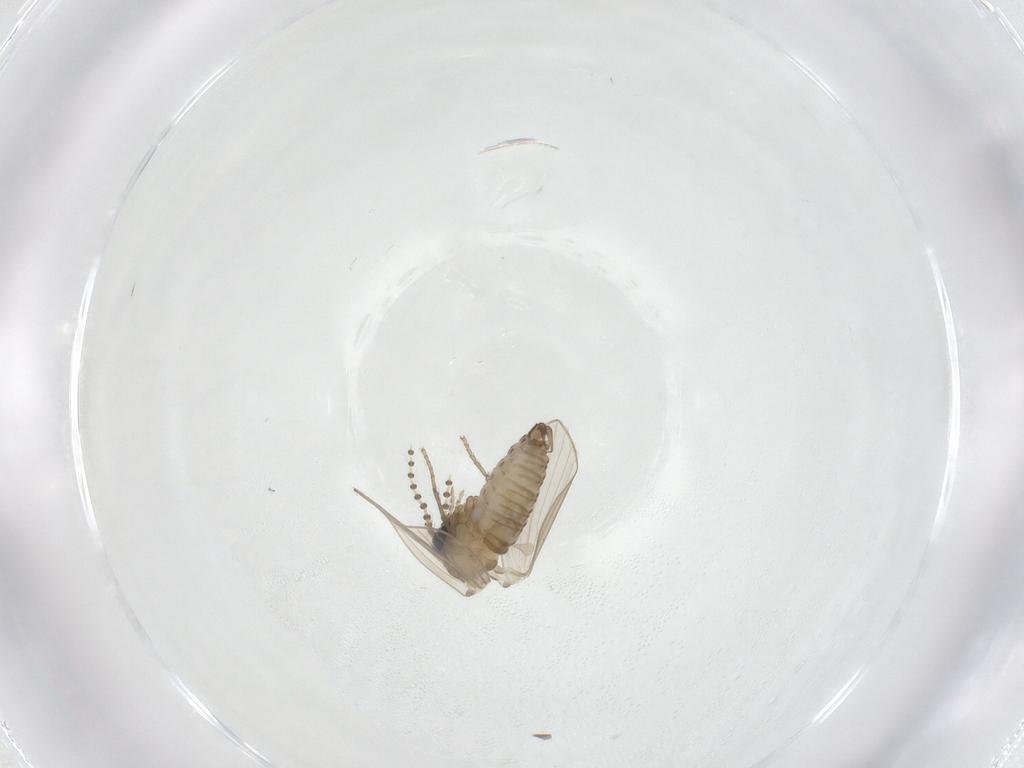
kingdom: Animalia
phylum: Arthropoda
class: Insecta
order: Diptera
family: Psychodidae
